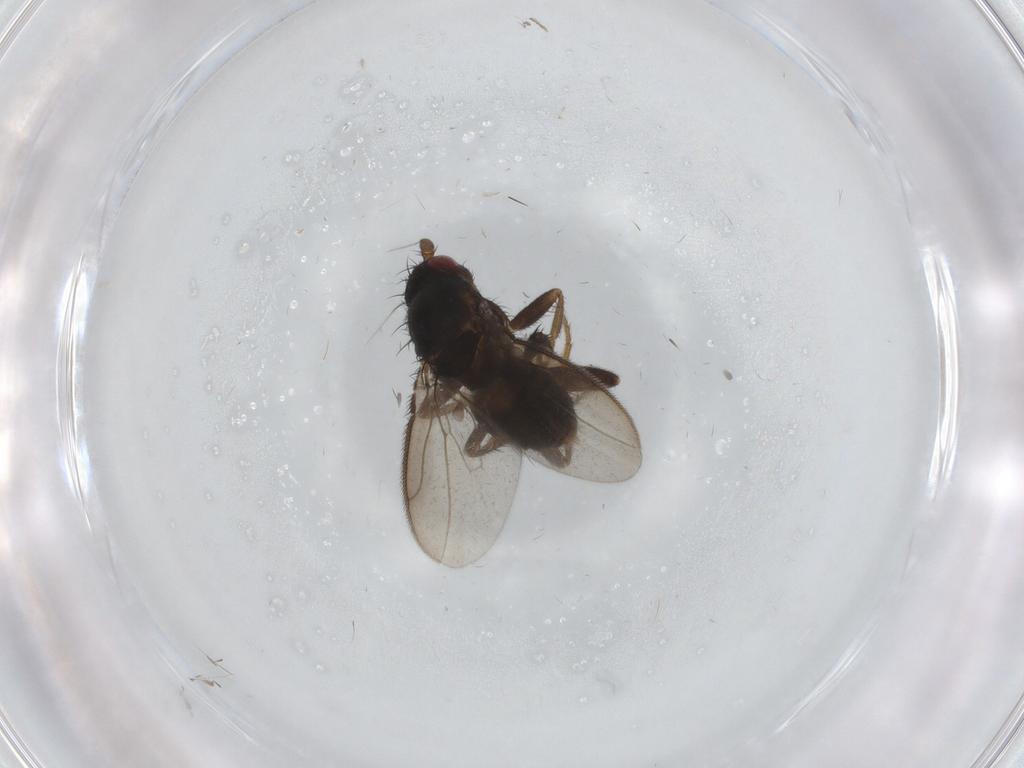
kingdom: Animalia
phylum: Arthropoda
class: Insecta
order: Diptera
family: Sphaeroceridae
